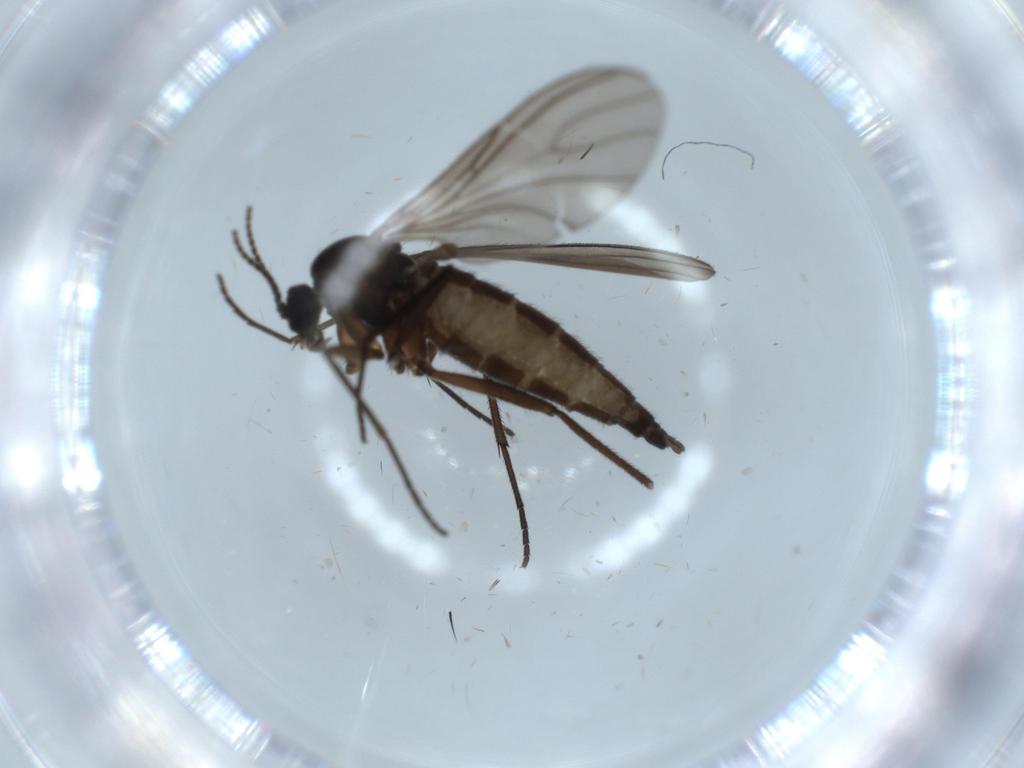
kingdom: Animalia
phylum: Arthropoda
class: Insecta
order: Diptera
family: Sciaridae
